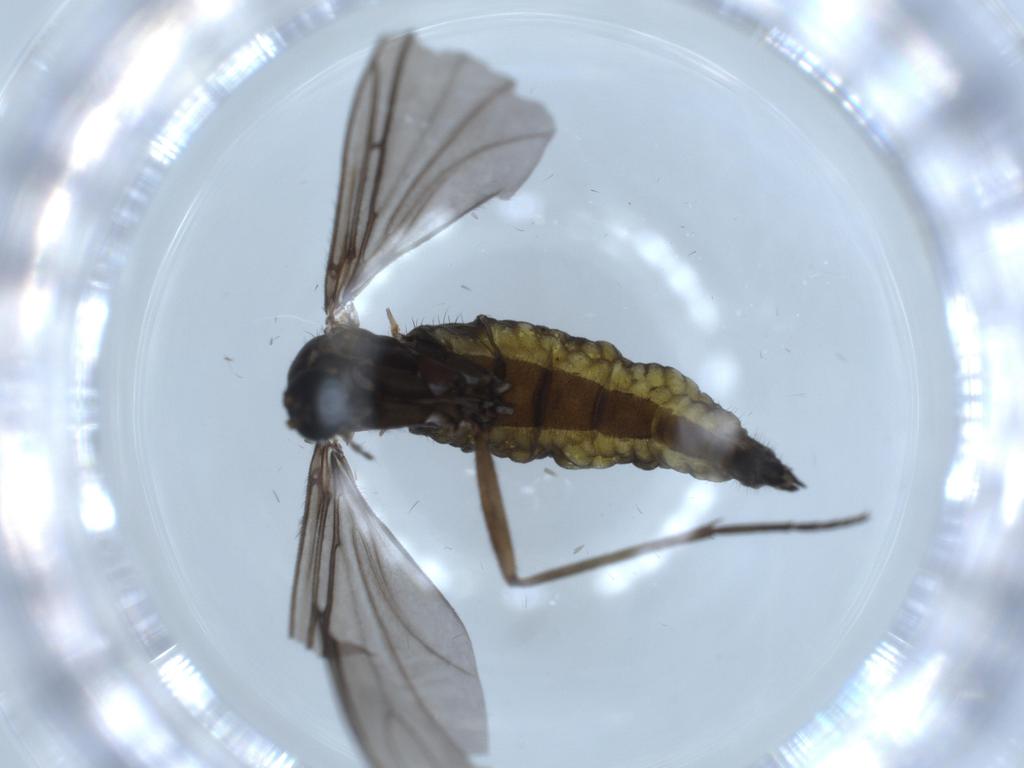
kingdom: Animalia
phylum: Arthropoda
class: Insecta
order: Diptera
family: Sciaridae
